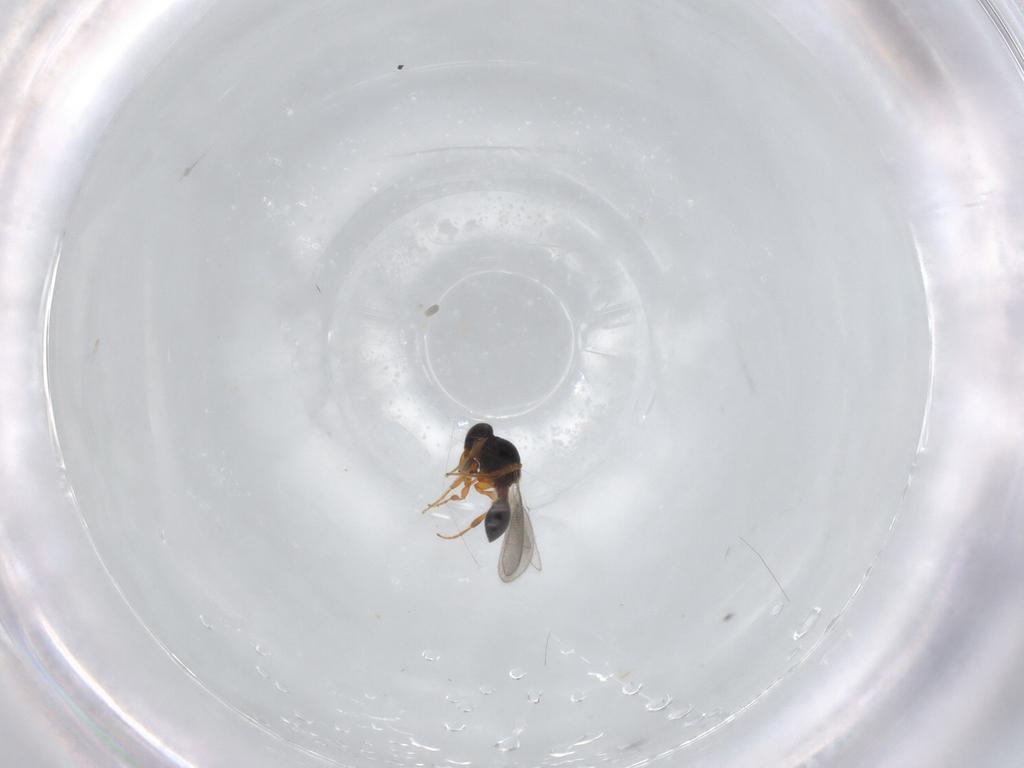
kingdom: Animalia
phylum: Arthropoda
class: Insecta
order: Hymenoptera
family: Platygastridae
